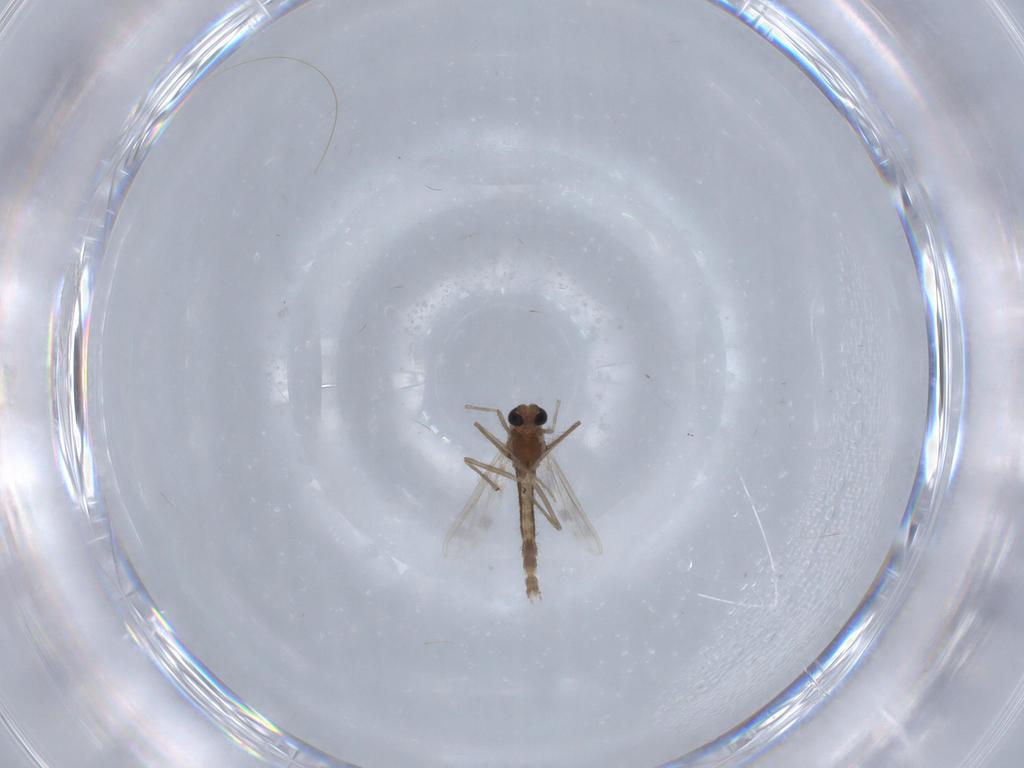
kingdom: Animalia
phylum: Arthropoda
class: Insecta
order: Diptera
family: Chironomidae
